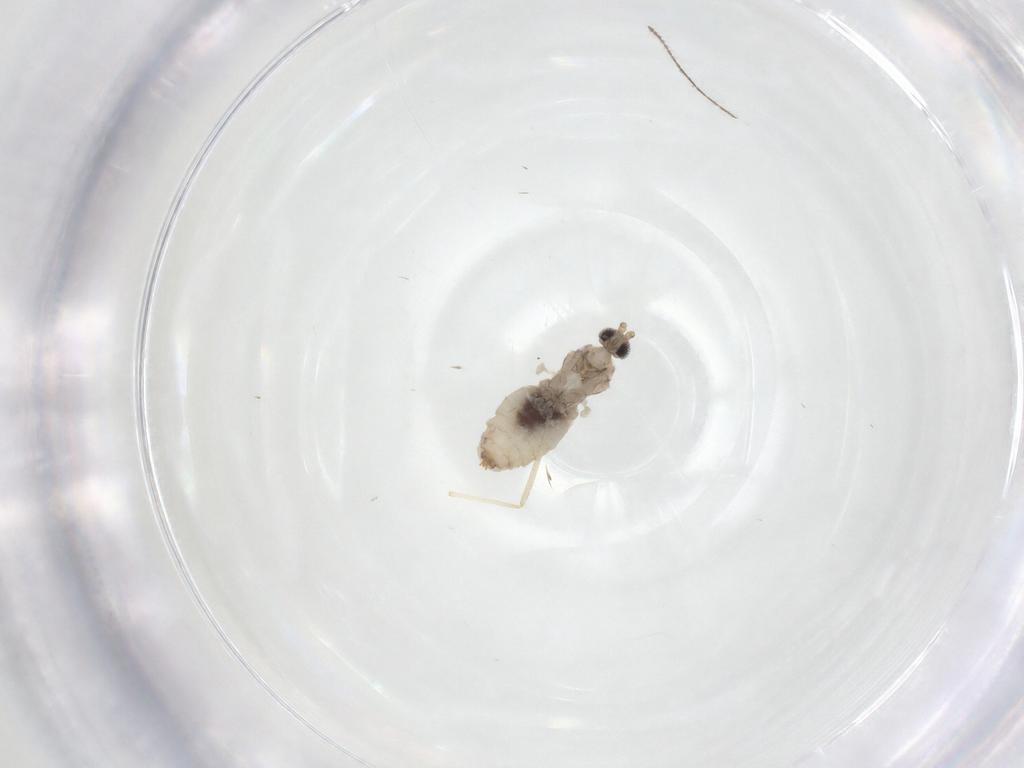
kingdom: Animalia
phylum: Arthropoda
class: Insecta
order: Diptera
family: Cecidomyiidae
